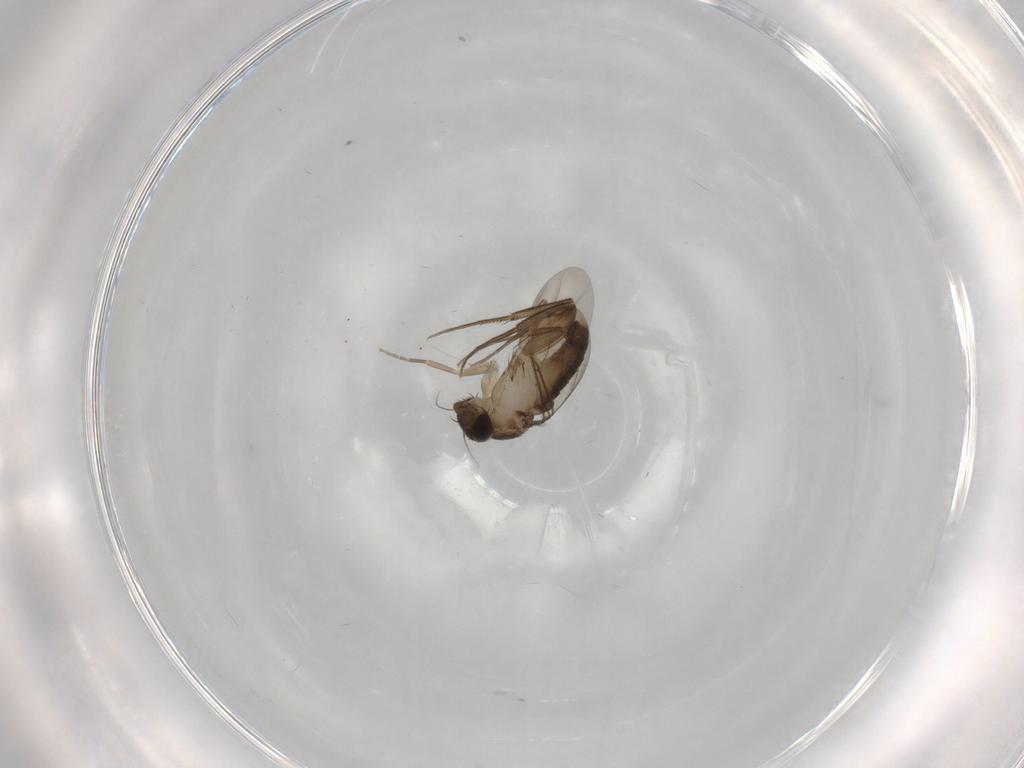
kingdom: Animalia
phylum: Arthropoda
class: Insecta
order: Diptera
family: Phoridae
